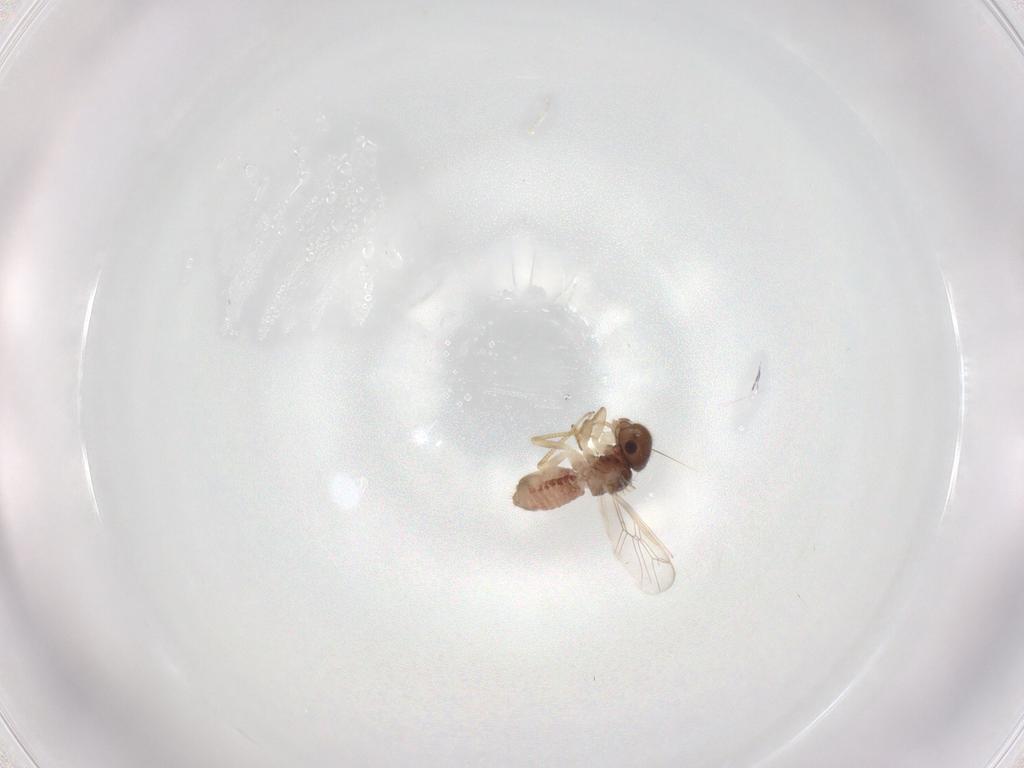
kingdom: Animalia
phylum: Arthropoda
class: Insecta
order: Psocodea
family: Peripsocidae
